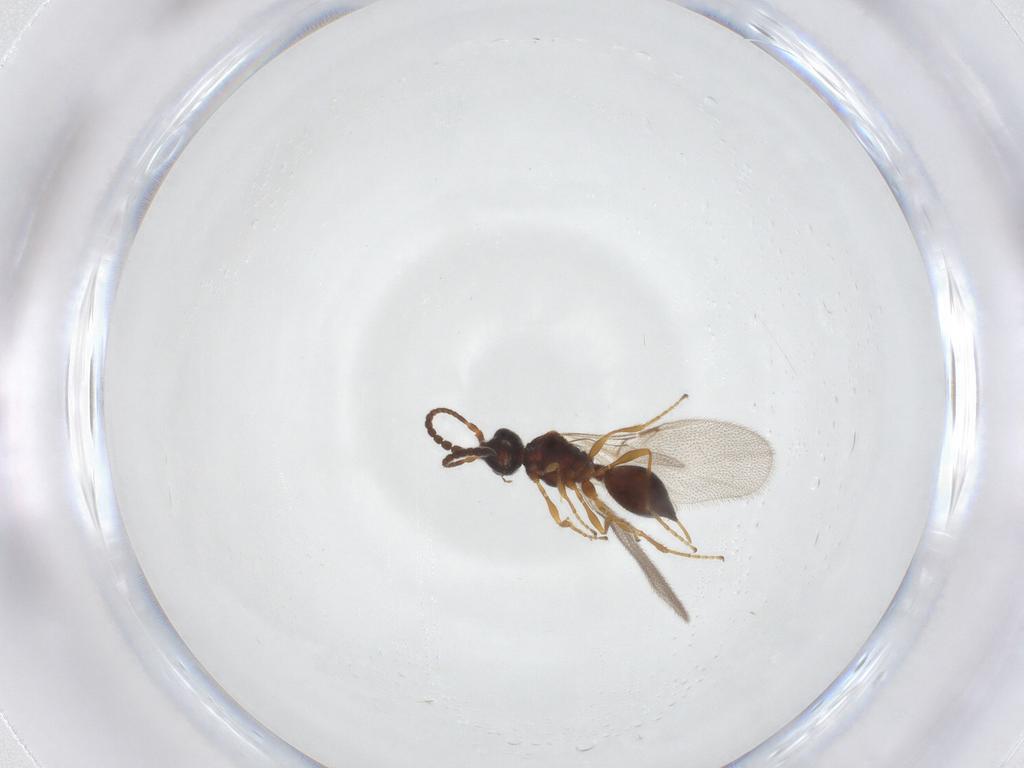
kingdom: Animalia
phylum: Arthropoda
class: Insecta
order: Hymenoptera
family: Diapriidae
